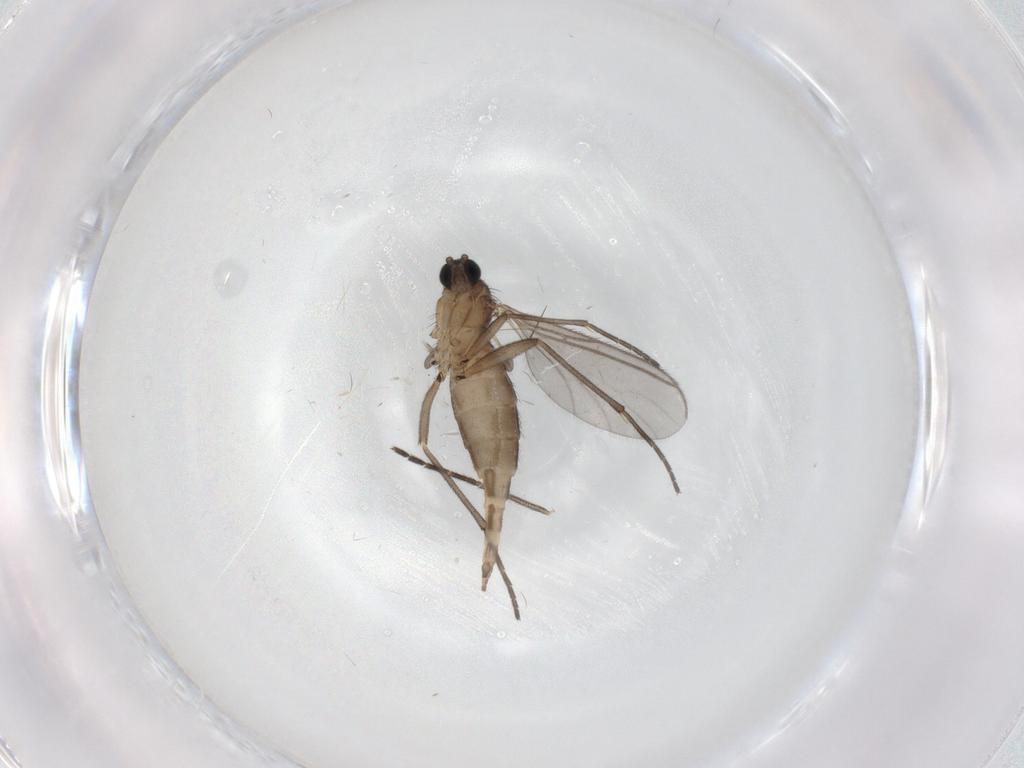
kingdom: Animalia
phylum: Arthropoda
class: Insecta
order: Diptera
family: Sciaridae
